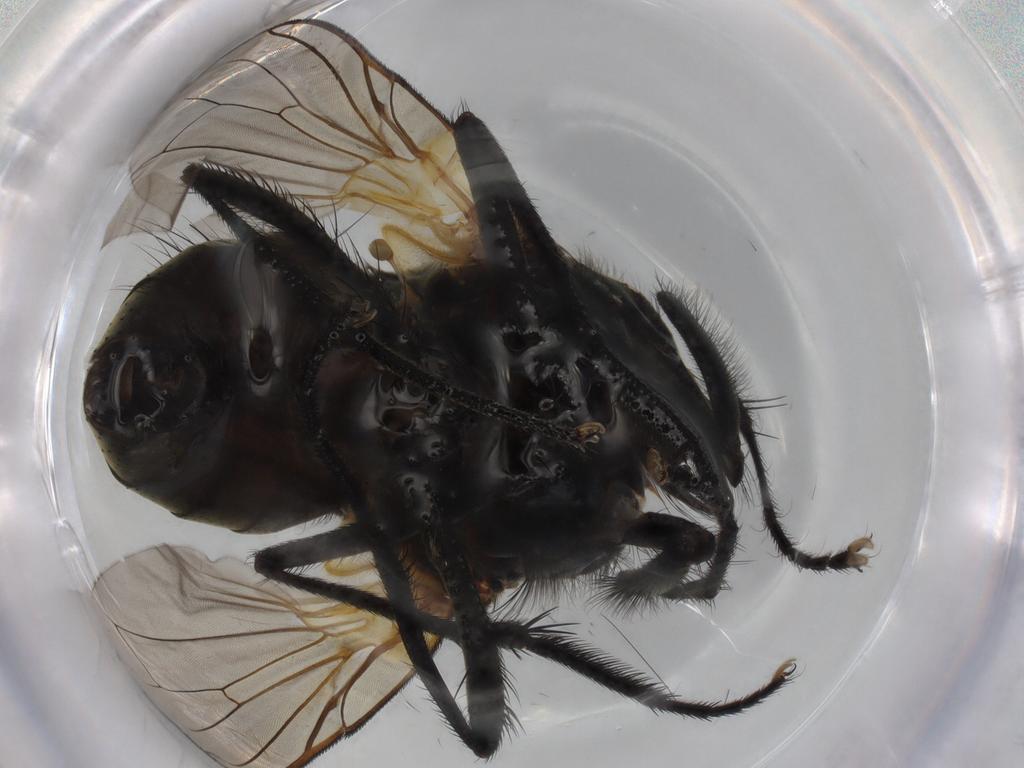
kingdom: Animalia
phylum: Arthropoda
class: Insecta
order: Diptera
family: Muscidae
